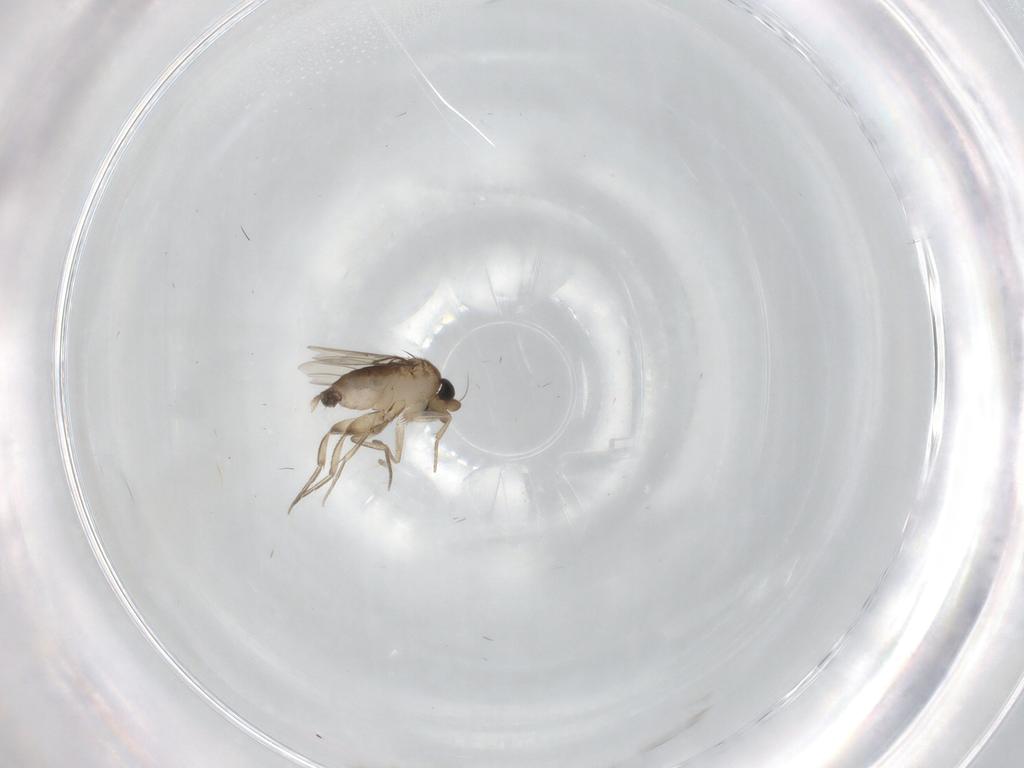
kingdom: Animalia
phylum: Arthropoda
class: Insecta
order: Diptera
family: Phoridae
